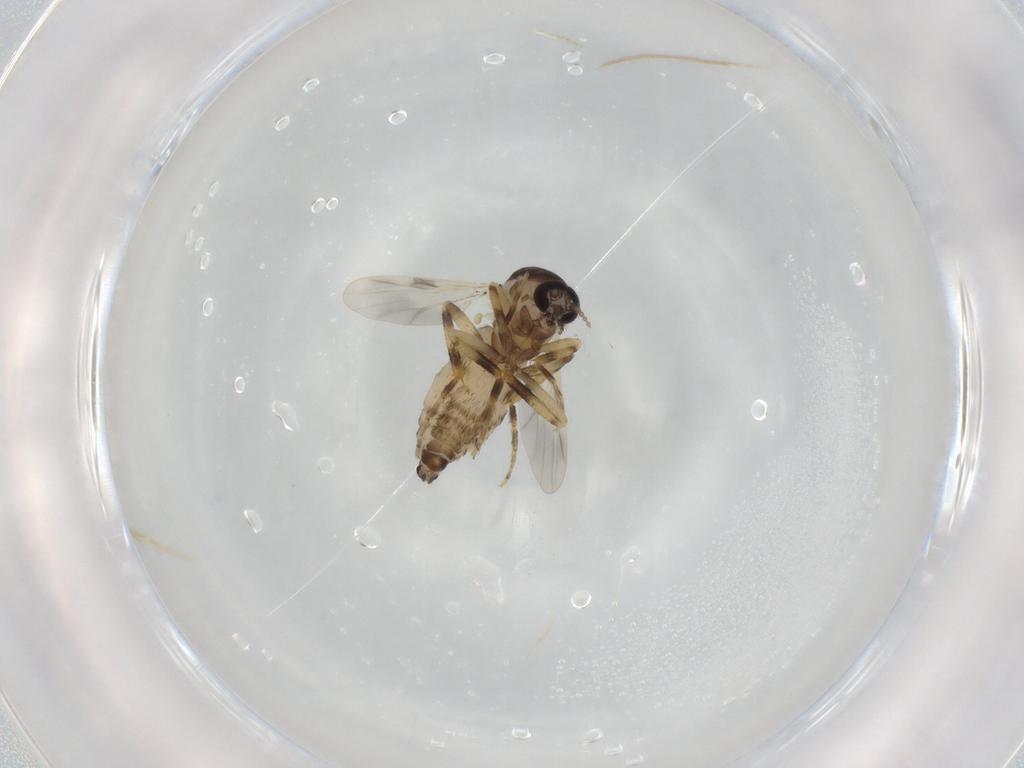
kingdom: Animalia
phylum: Arthropoda
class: Insecta
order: Diptera
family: Ceratopogonidae
